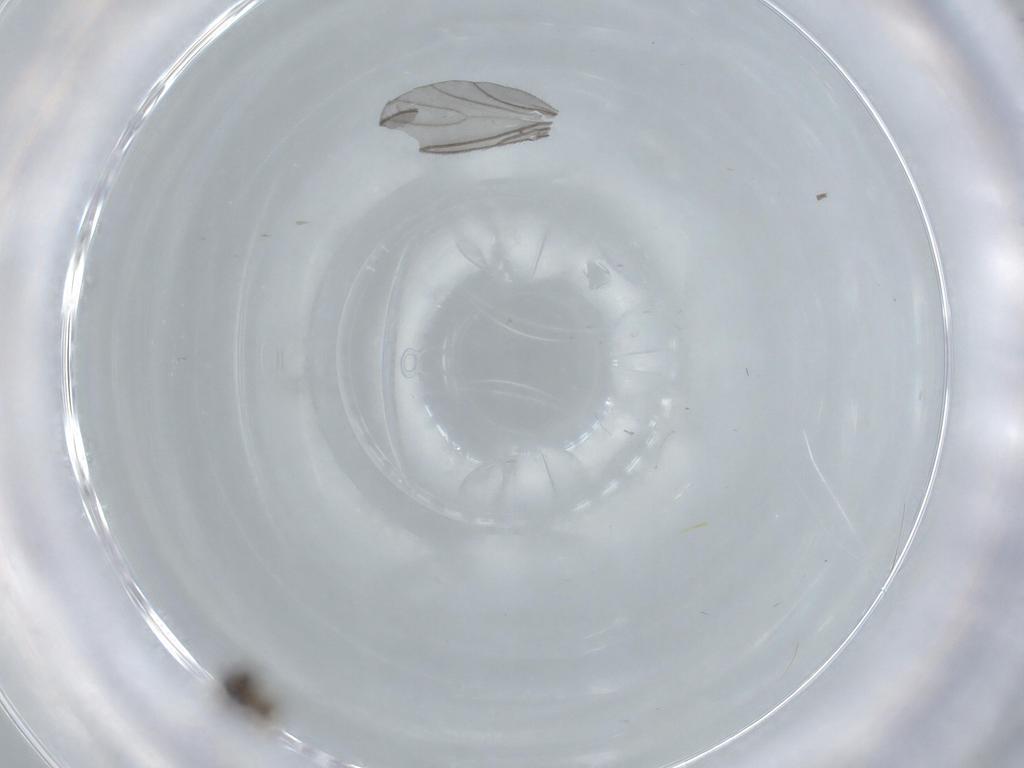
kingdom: Animalia
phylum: Arthropoda
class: Insecta
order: Diptera
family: Phoridae
